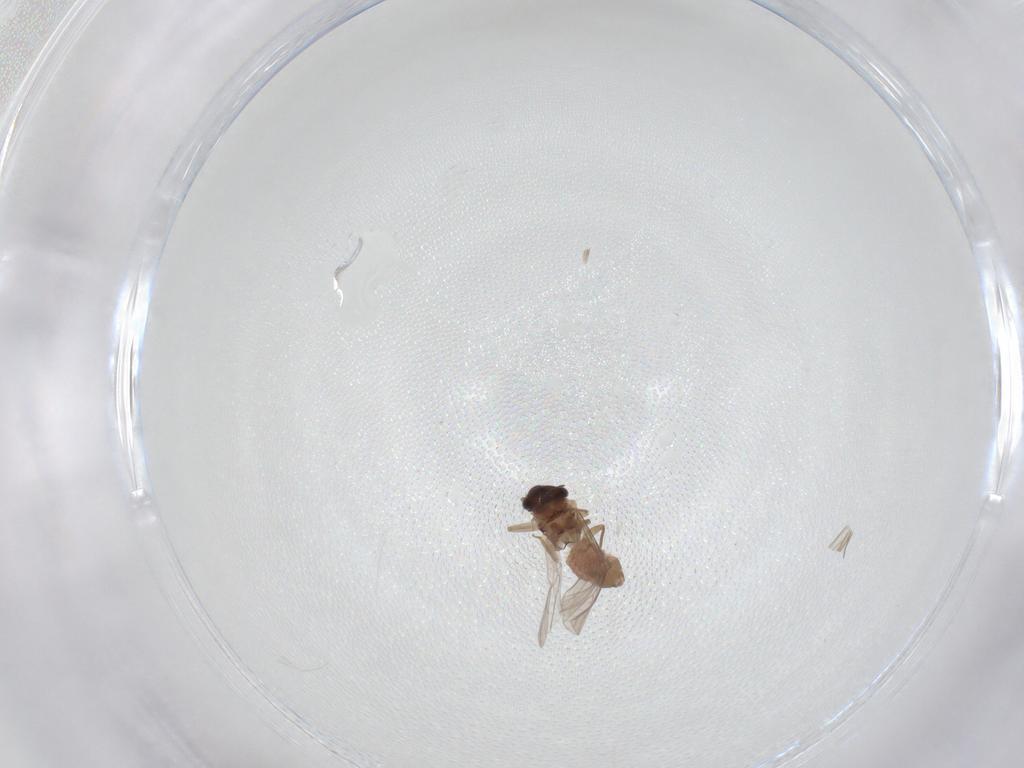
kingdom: Animalia
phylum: Arthropoda
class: Insecta
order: Psocodea
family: Lepidopsocidae
